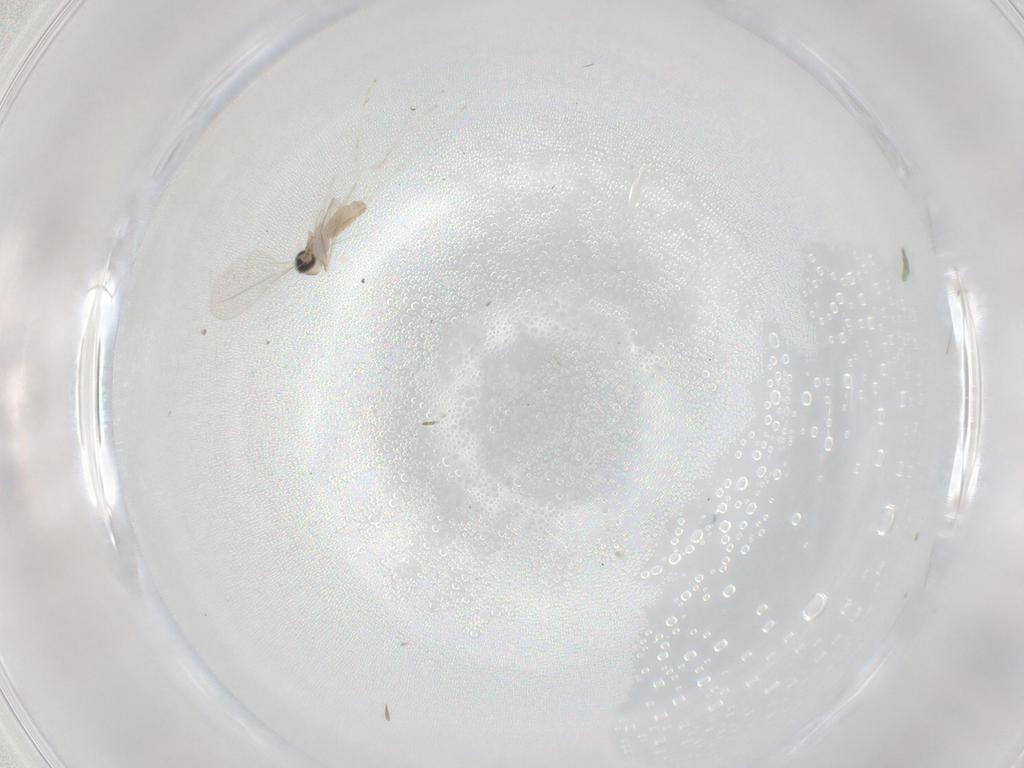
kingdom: Animalia
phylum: Arthropoda
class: Insecta
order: Diptera
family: Cecidomyiidae
